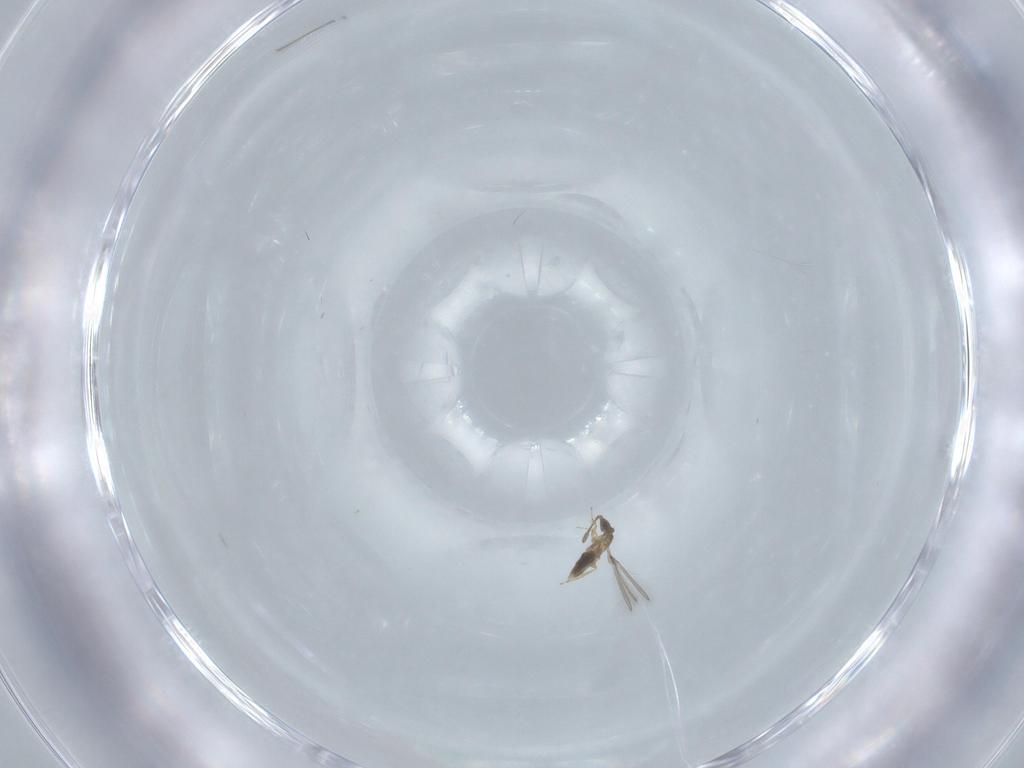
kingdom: Animalia
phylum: Arthropoda
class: Insecta
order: Hymenoptera
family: Mymaridae
